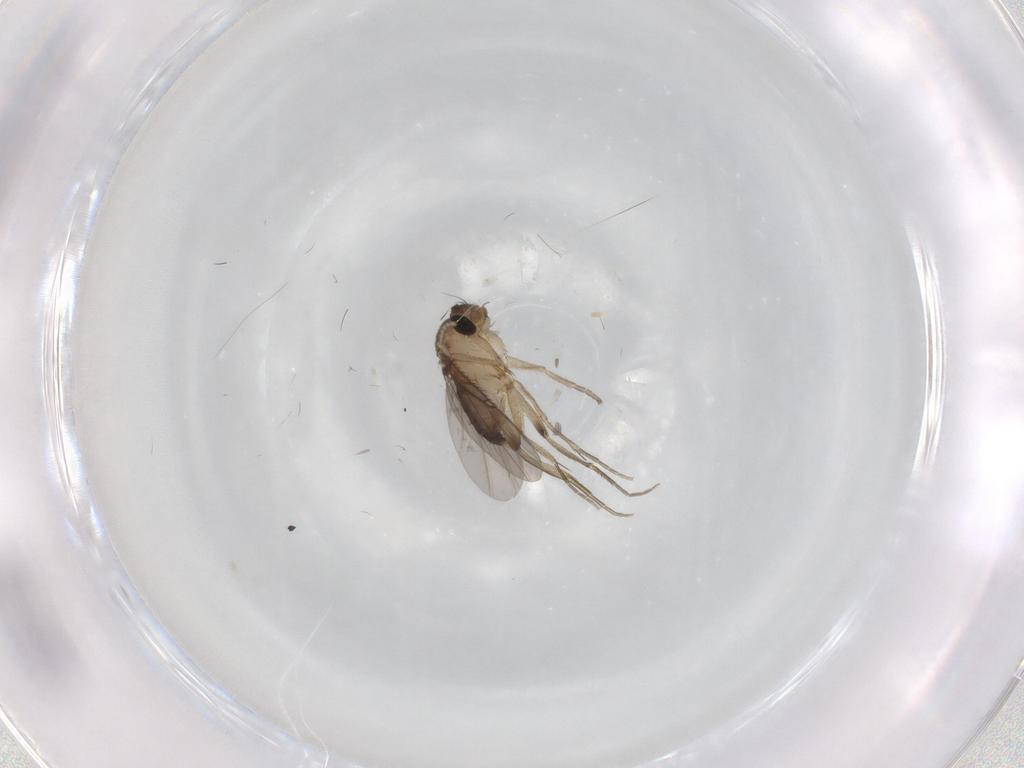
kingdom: Animalia
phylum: Arthropoda
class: Insecta
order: Diptera
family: Phoridae
